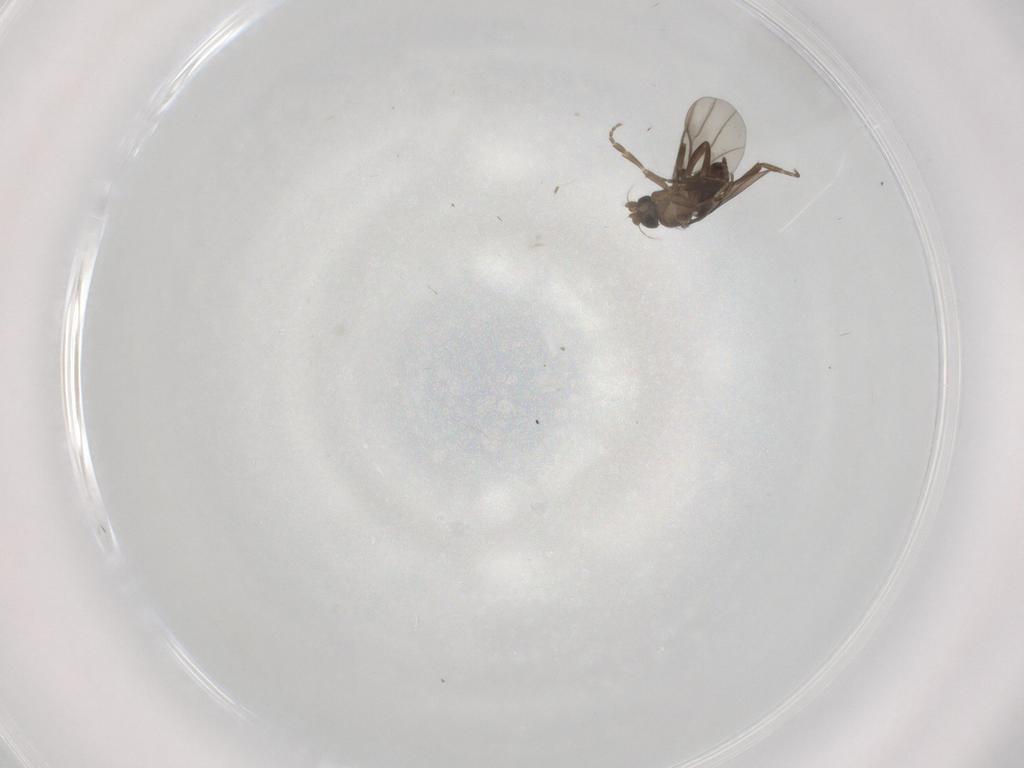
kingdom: Animalia
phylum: Arthropoda
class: Insecta
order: Diptera
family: Phoridae
